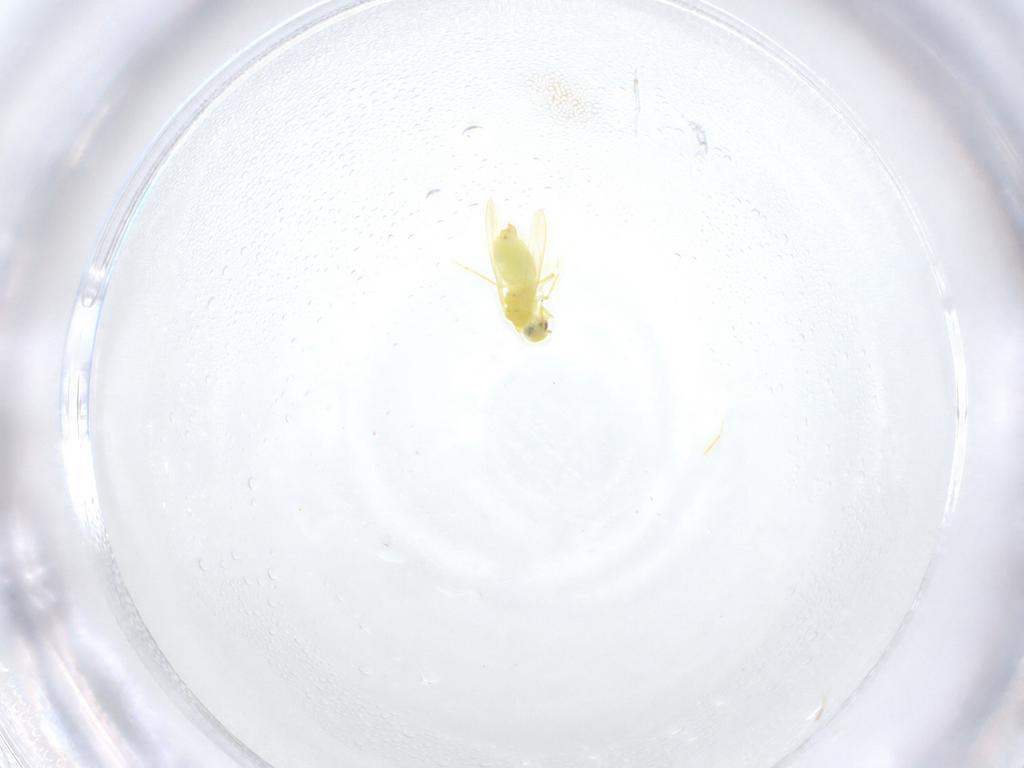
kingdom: Animalia
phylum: Arthropoda
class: Insecta
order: Hemiptera
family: Aleyrodidae
